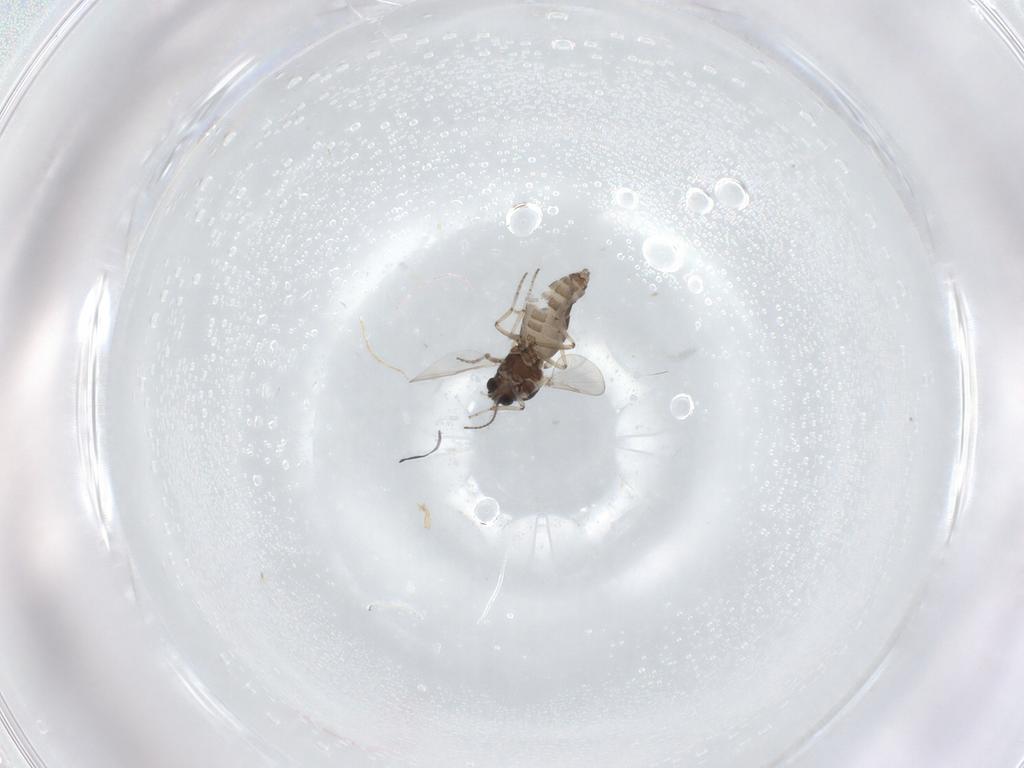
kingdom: Animalia
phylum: Arthropoda
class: Insecta
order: Diptera
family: Ceratopogonidae
